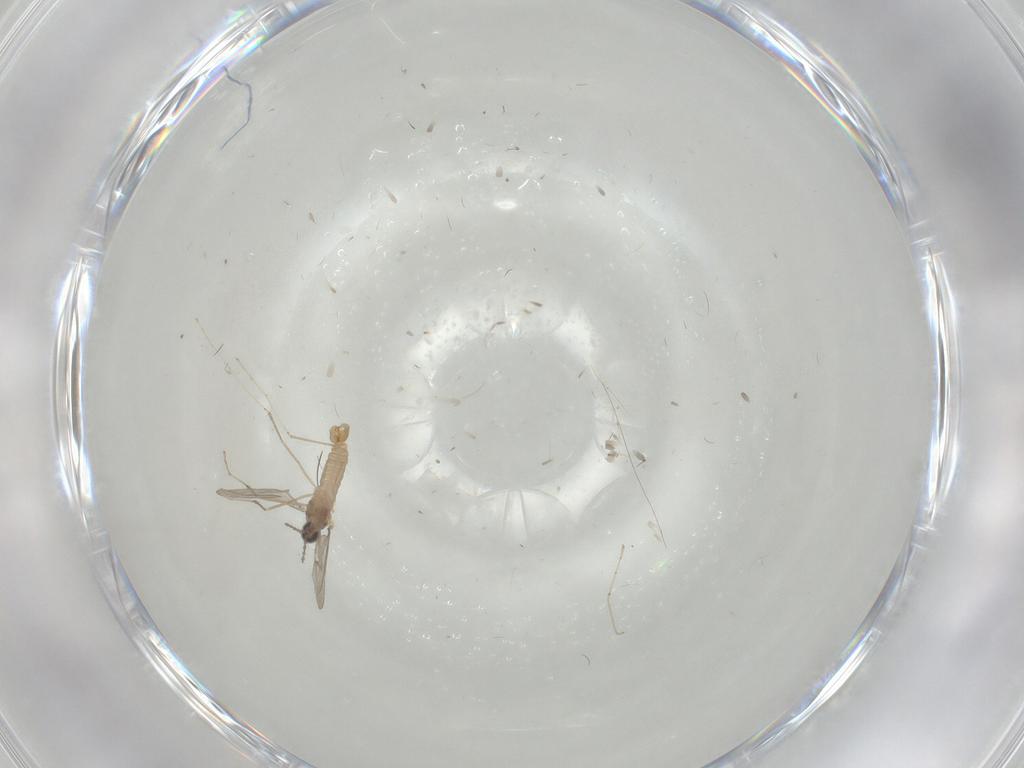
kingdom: Animalia
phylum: Arthropoda
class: Insecta
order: Diptera
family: Cecidomyiidae
